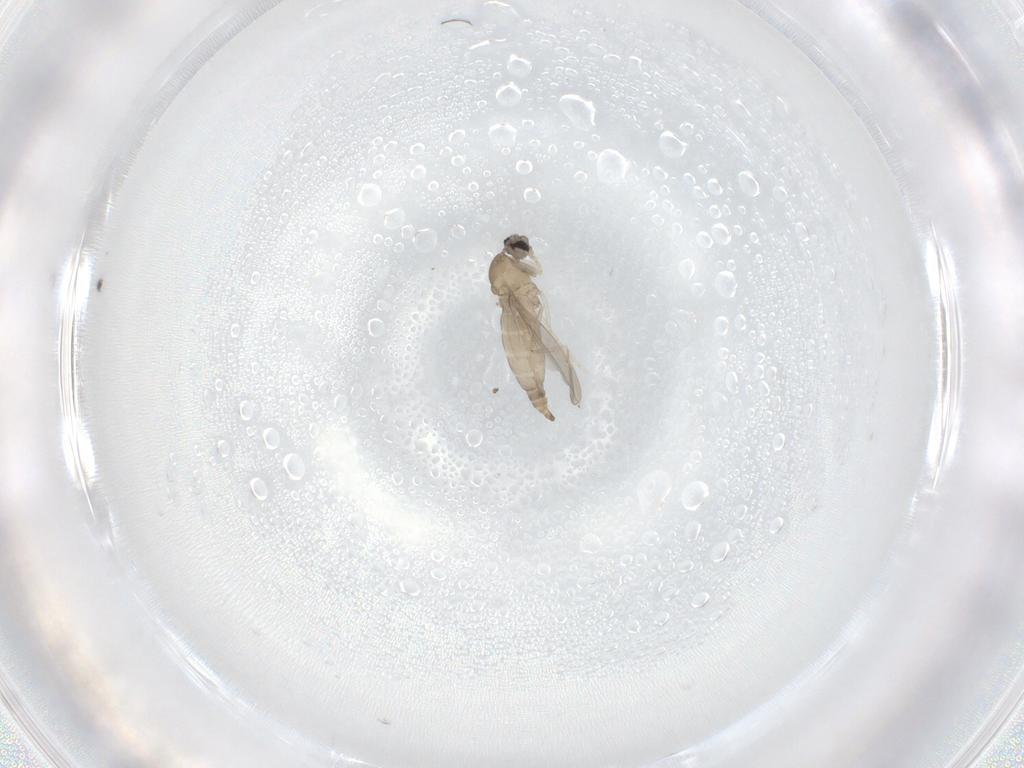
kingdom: Animalia
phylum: Arthropoda
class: Insecta
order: Diptera
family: Cecidomyiidae
